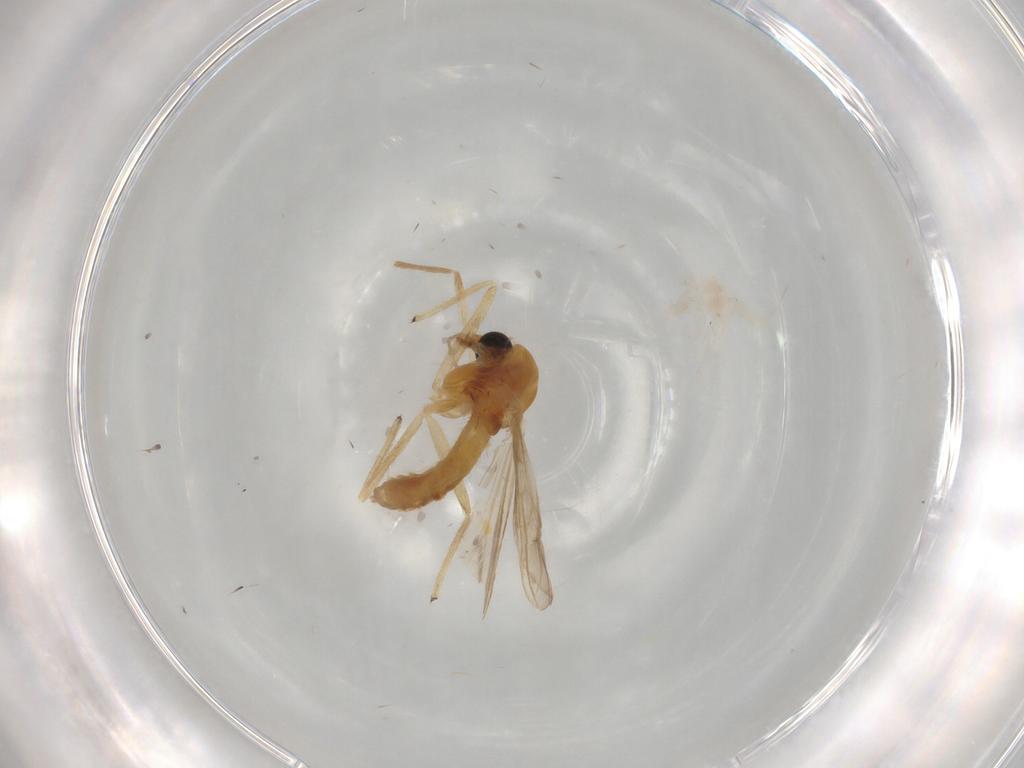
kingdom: Animalia
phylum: Arthropoda
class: Insecta
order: Diptera
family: Chironomidae
